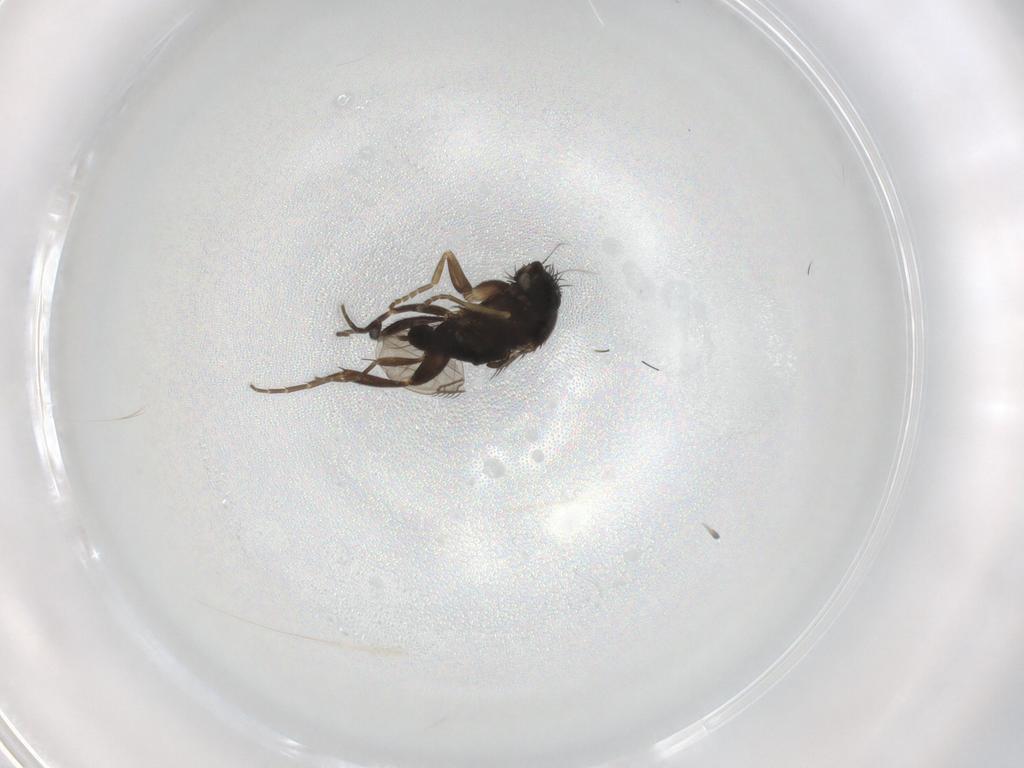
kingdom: Animalia
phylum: Arthropoda
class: Insecta
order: Diptera
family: Phoridae
